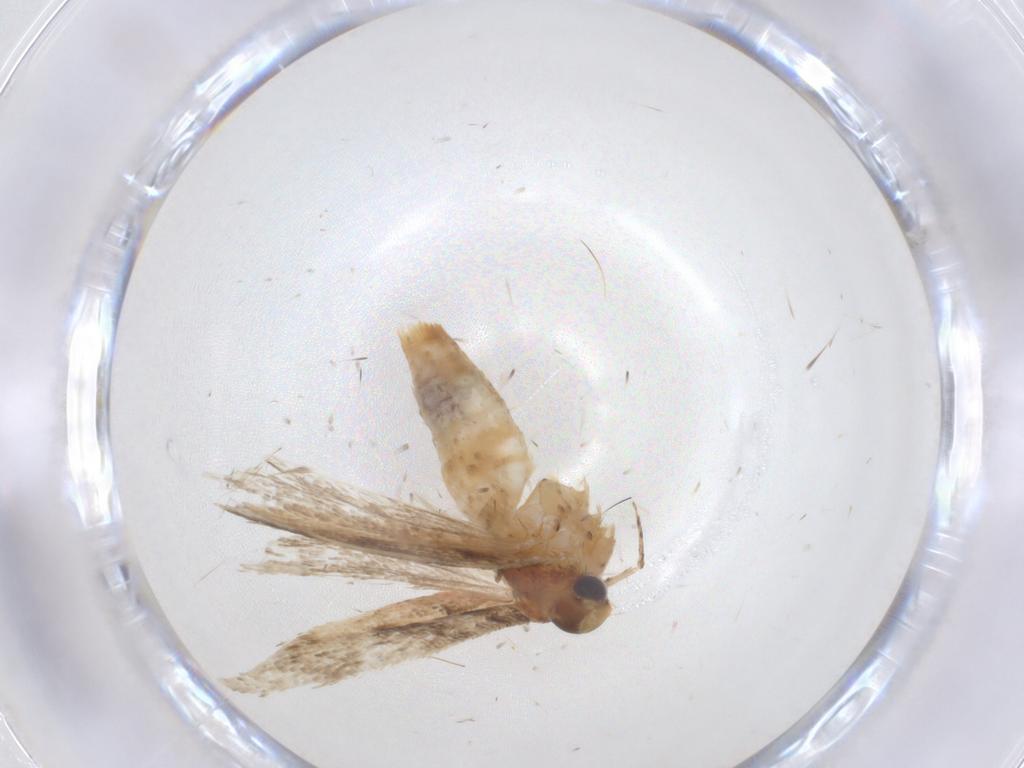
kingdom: Animalia
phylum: Arthropoda
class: Insecta
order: Lepidoptera
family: Gelechiidae
